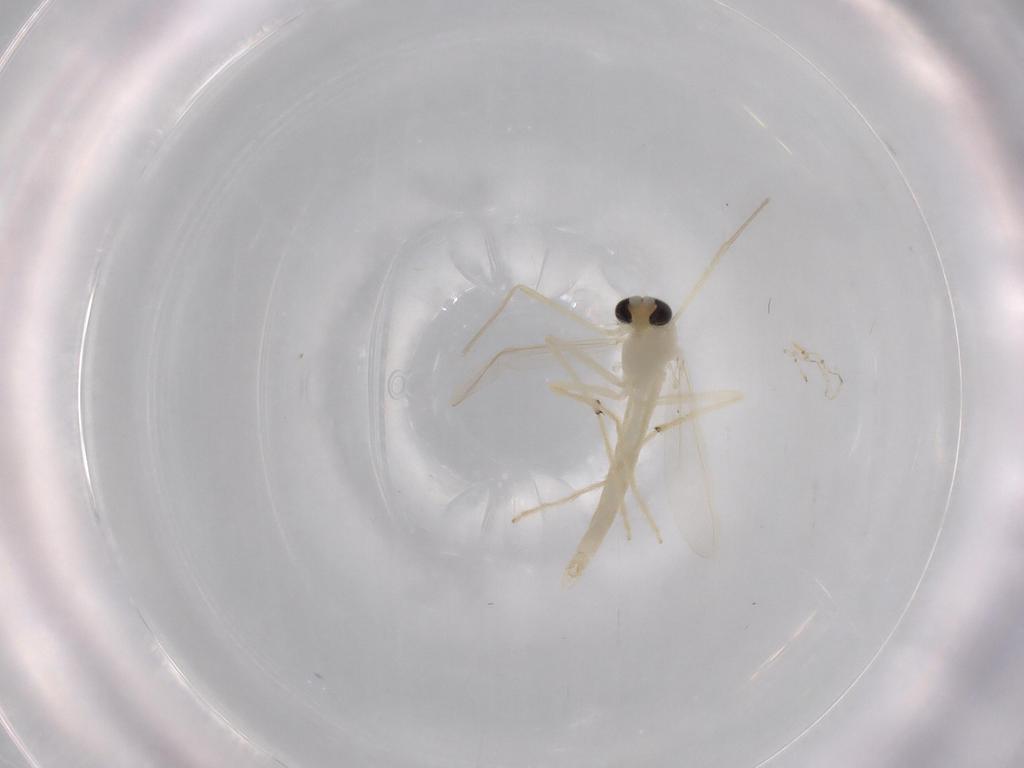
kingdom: Animalia
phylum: Arthropoda
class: Insecta
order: Diptera
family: Chironomidae
